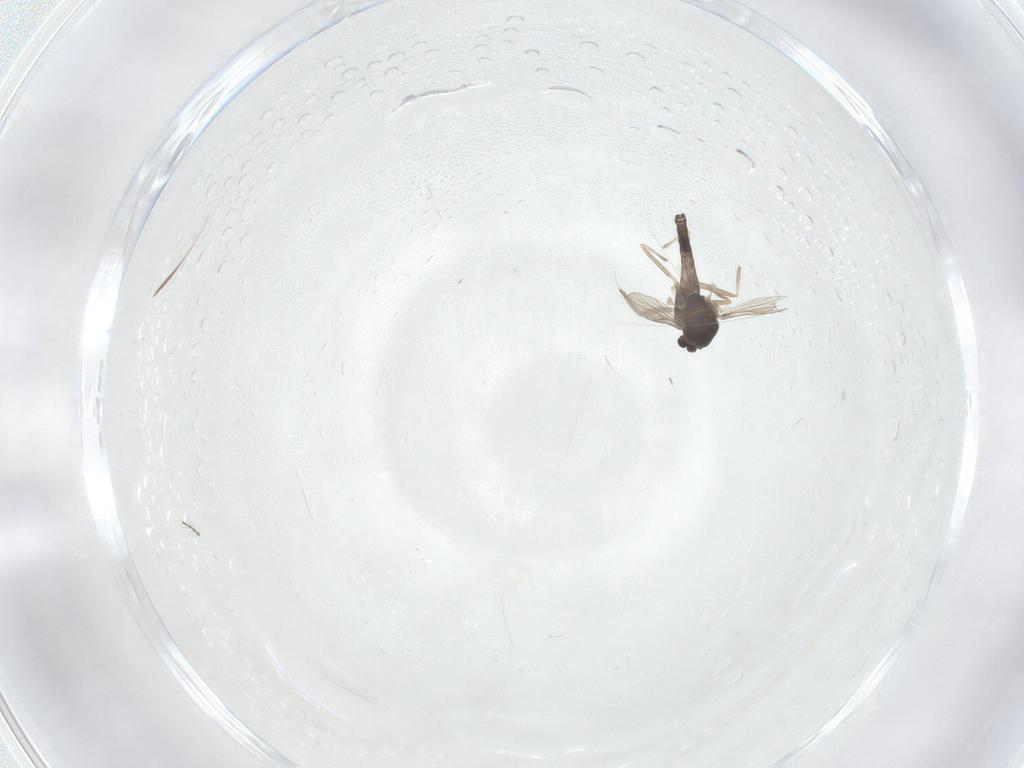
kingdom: Animalia
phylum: Arthropoda
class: Insecta
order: Diptera
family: Chironomidae
